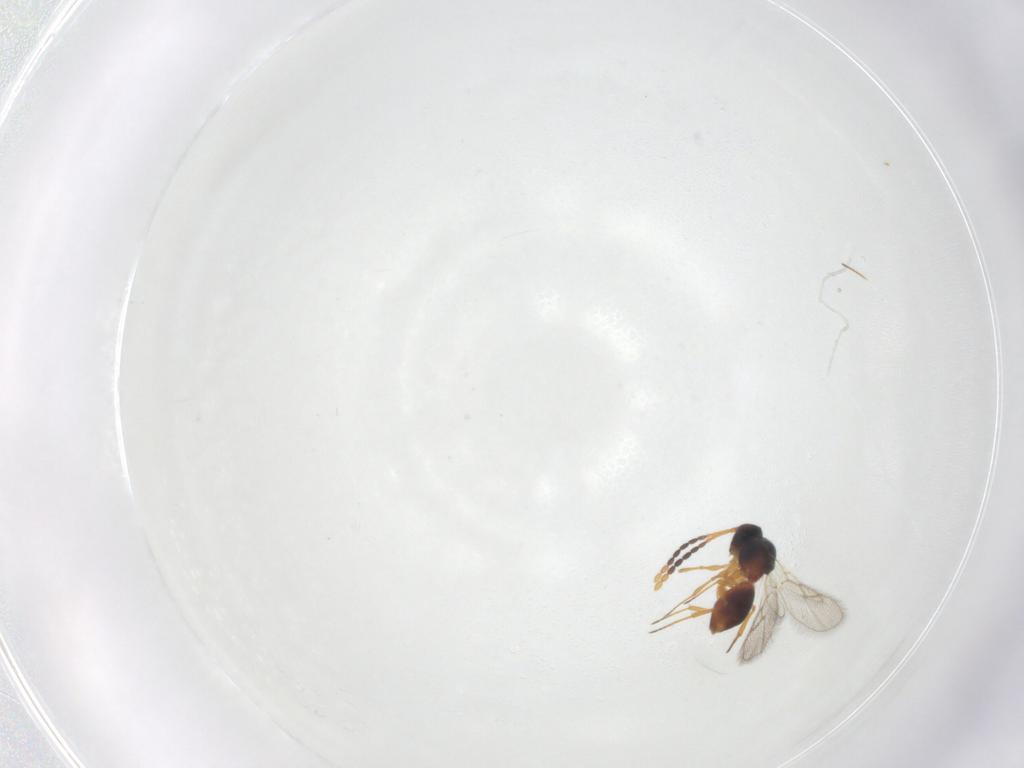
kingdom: Animalia
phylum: Arthropoda
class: Insecta
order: Hymenoptera
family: Figitidae
